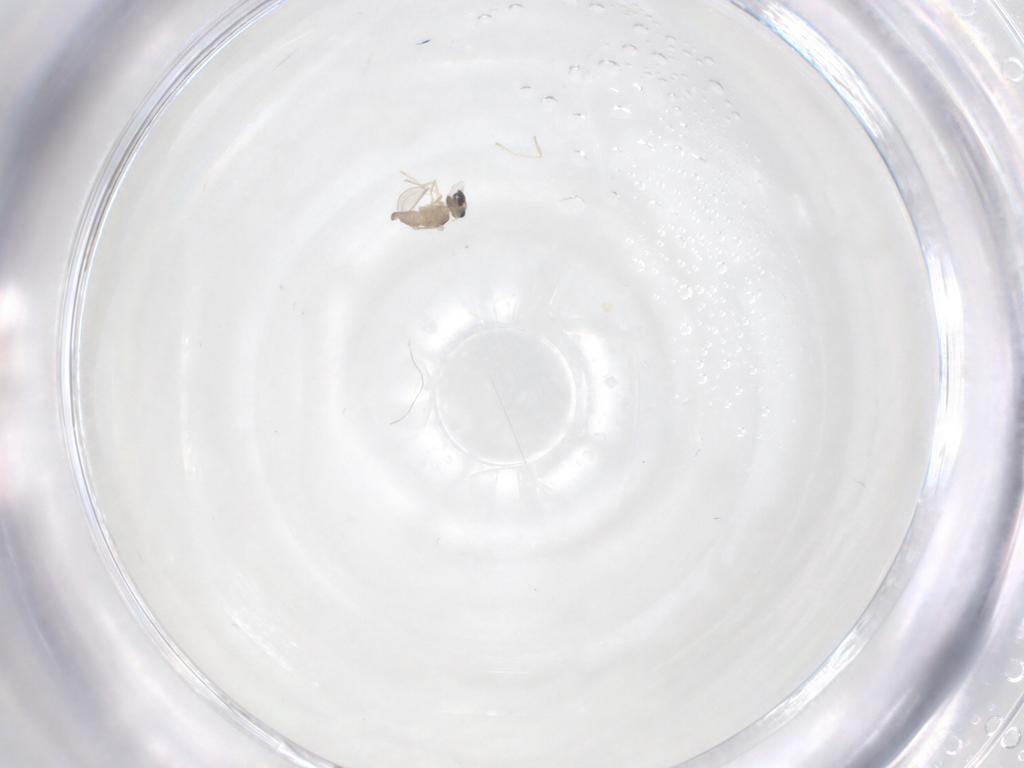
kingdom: Animalia
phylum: Arthropoda
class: Insecta
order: Diptera
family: Cecidomyiidae
